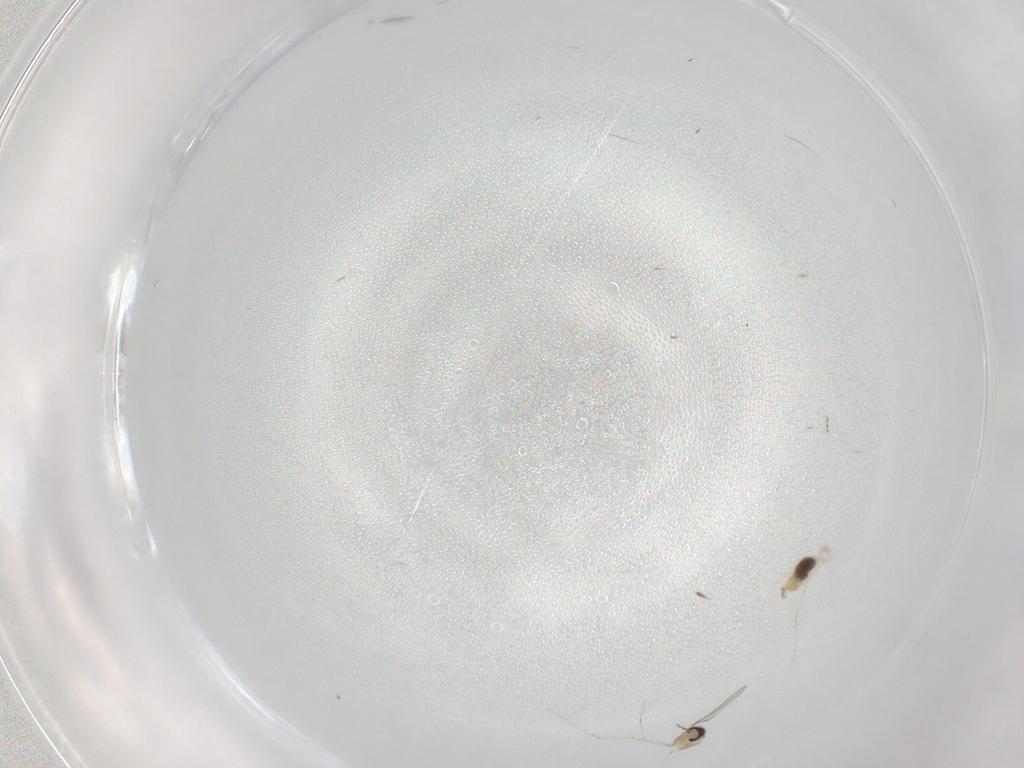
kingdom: Animalia
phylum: Arthropoda
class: Insecta
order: Diptera
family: Cecidomyiidae
